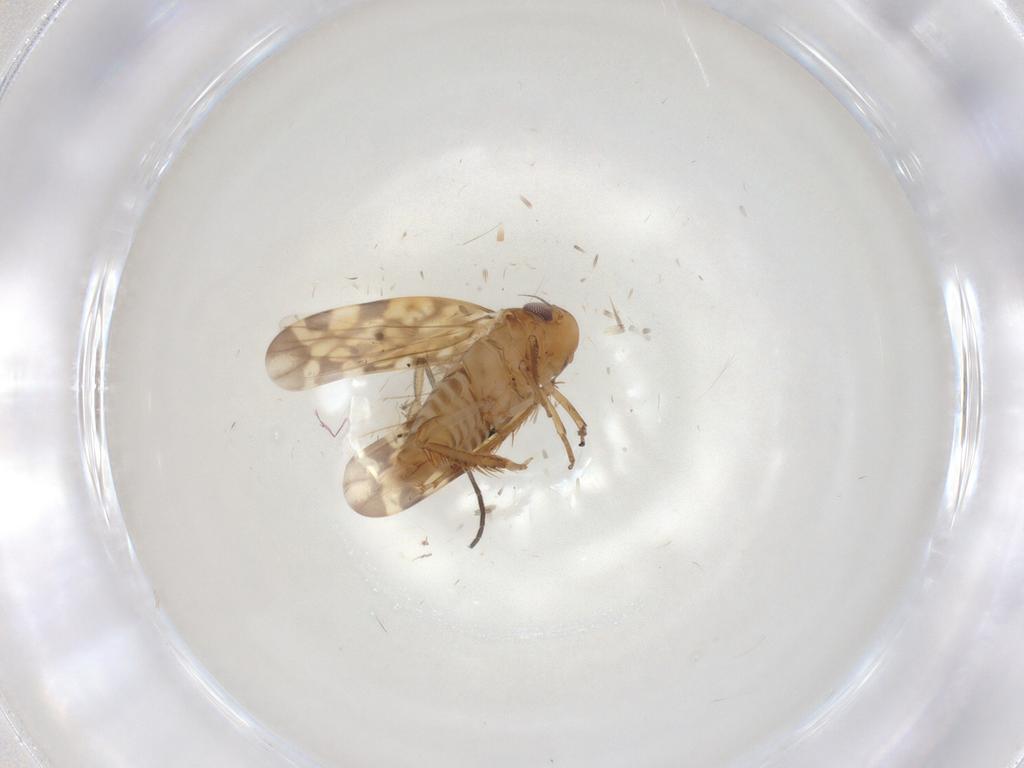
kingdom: Animalia
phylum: Arthropoda
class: Insecta
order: Hemiptera
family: Cicadellidae
